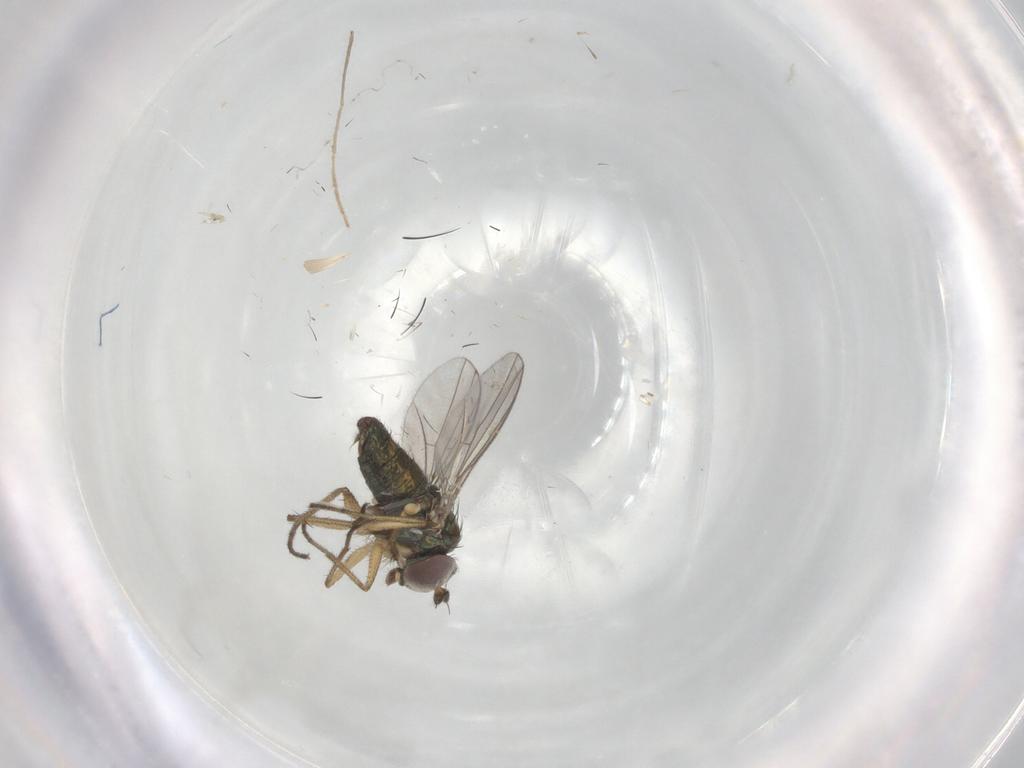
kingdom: Animalia
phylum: Arthropoda
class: Insecta
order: Diptera
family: Dolichopodidae
